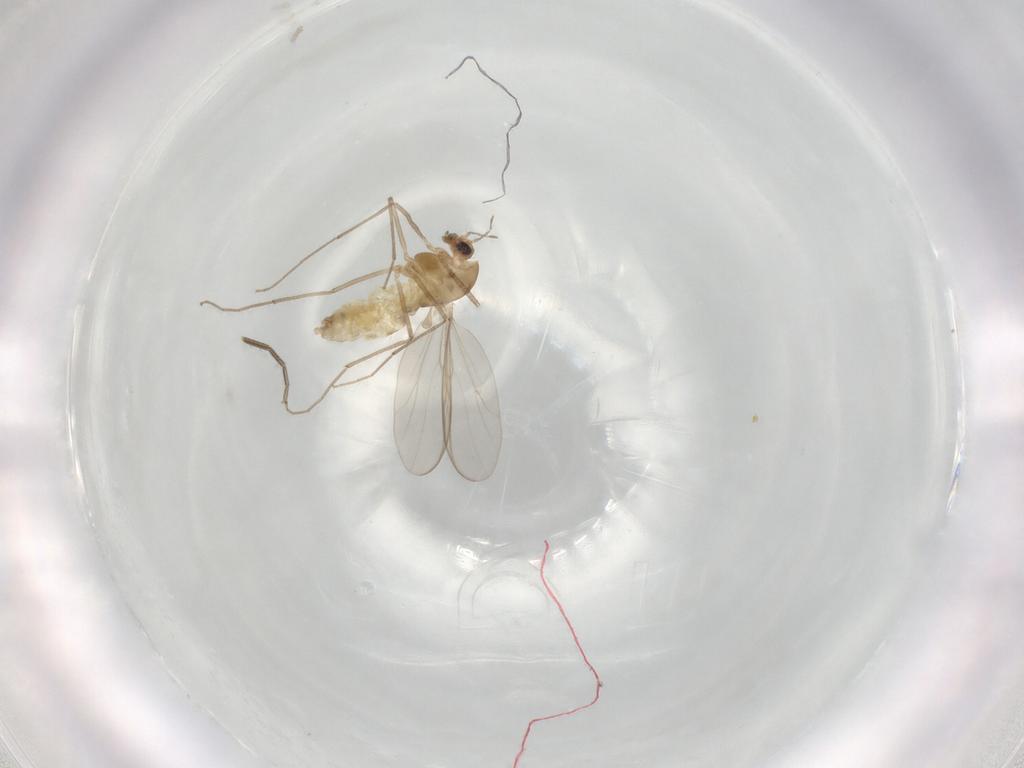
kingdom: Animalia
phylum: Arthropoda
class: Insecta
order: Diptera
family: Chironomidae
